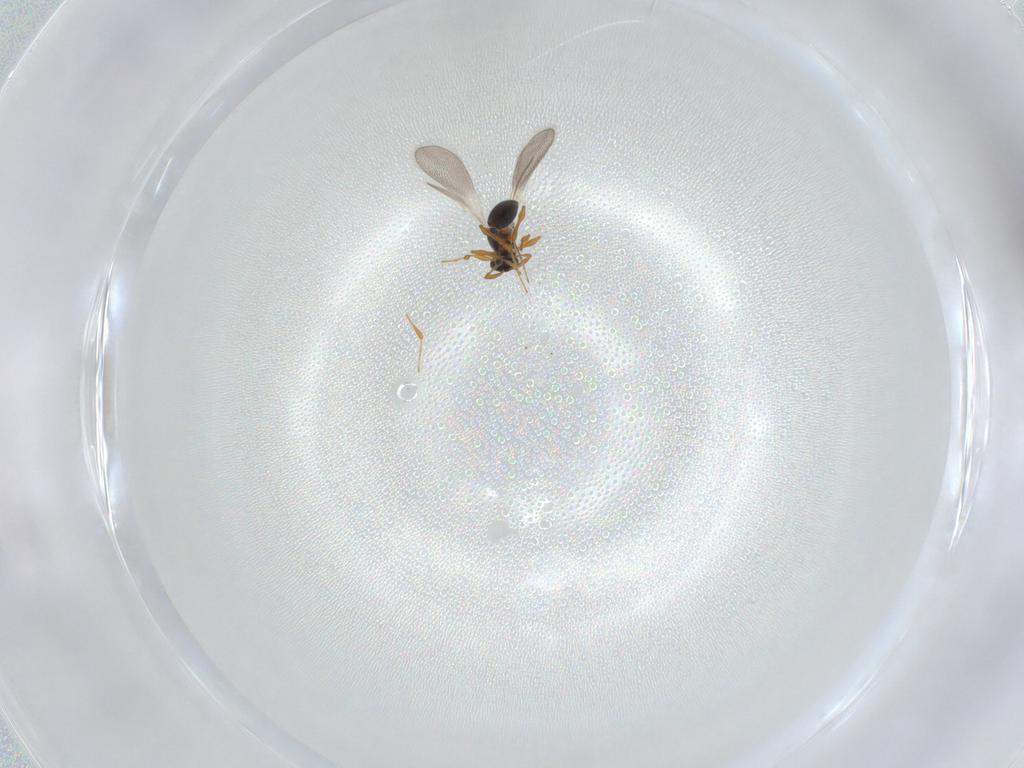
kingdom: Animalia
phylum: Arthropoda
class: Insecta
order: Hymenoptera
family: Platygastridae
